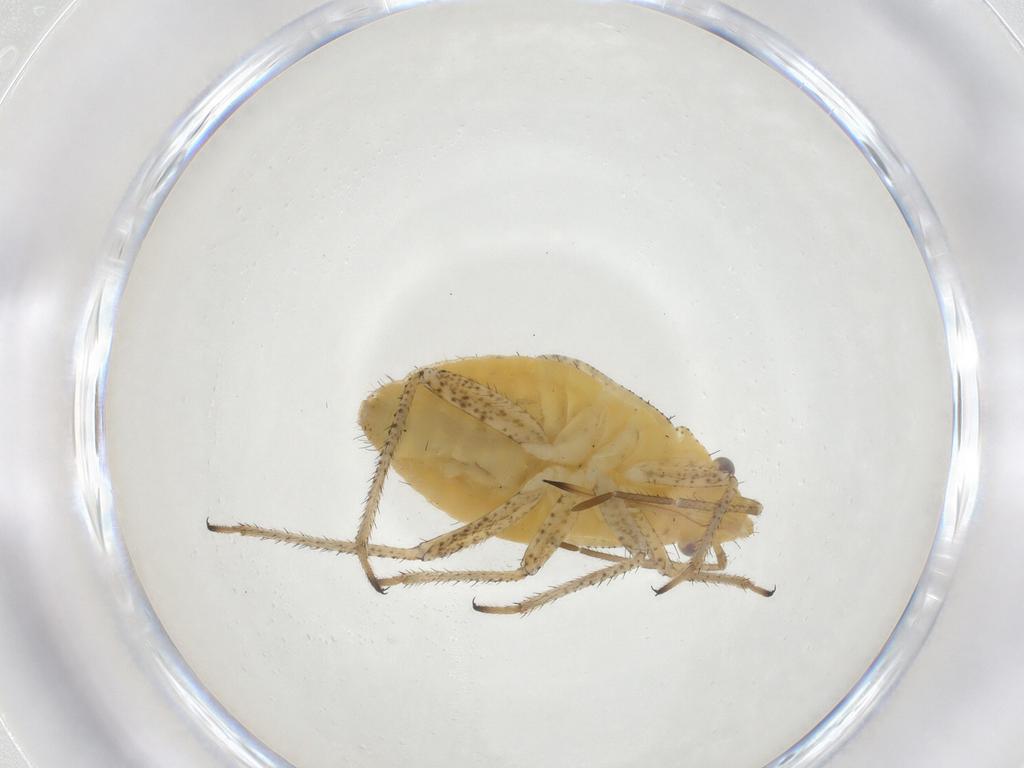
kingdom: Animalia
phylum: Arthropoda
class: Insecta
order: Hemiptera
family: Miridae
